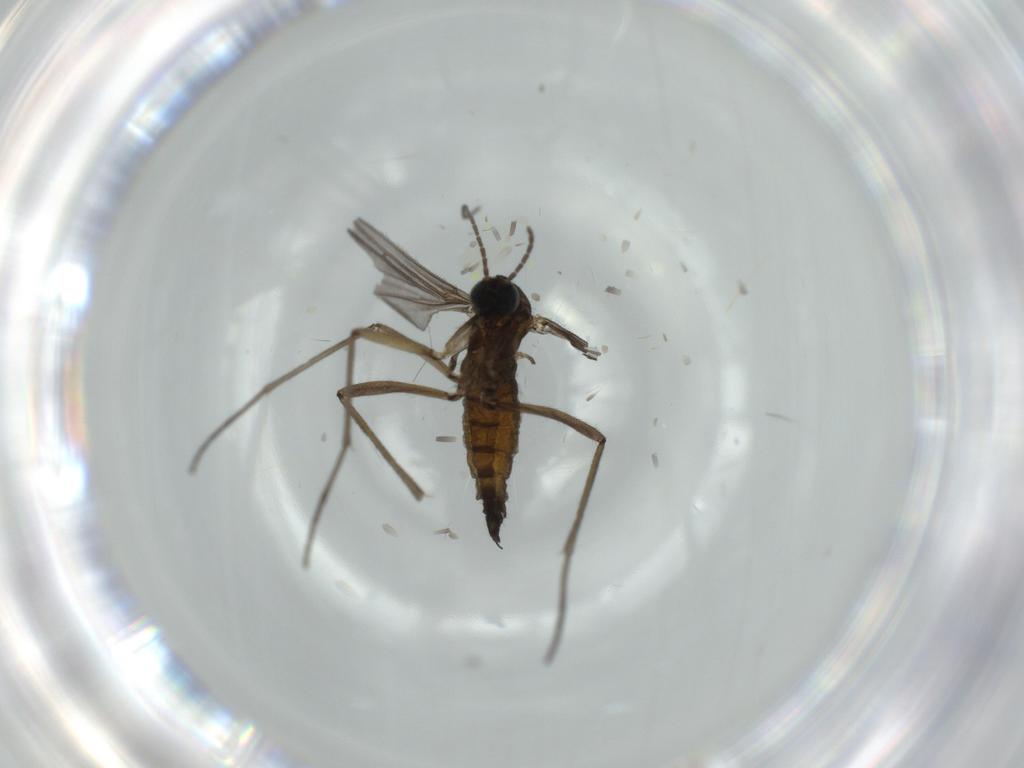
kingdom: Animalia
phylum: Arthropoda
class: Insecta
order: Diptera
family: Sciaridae
